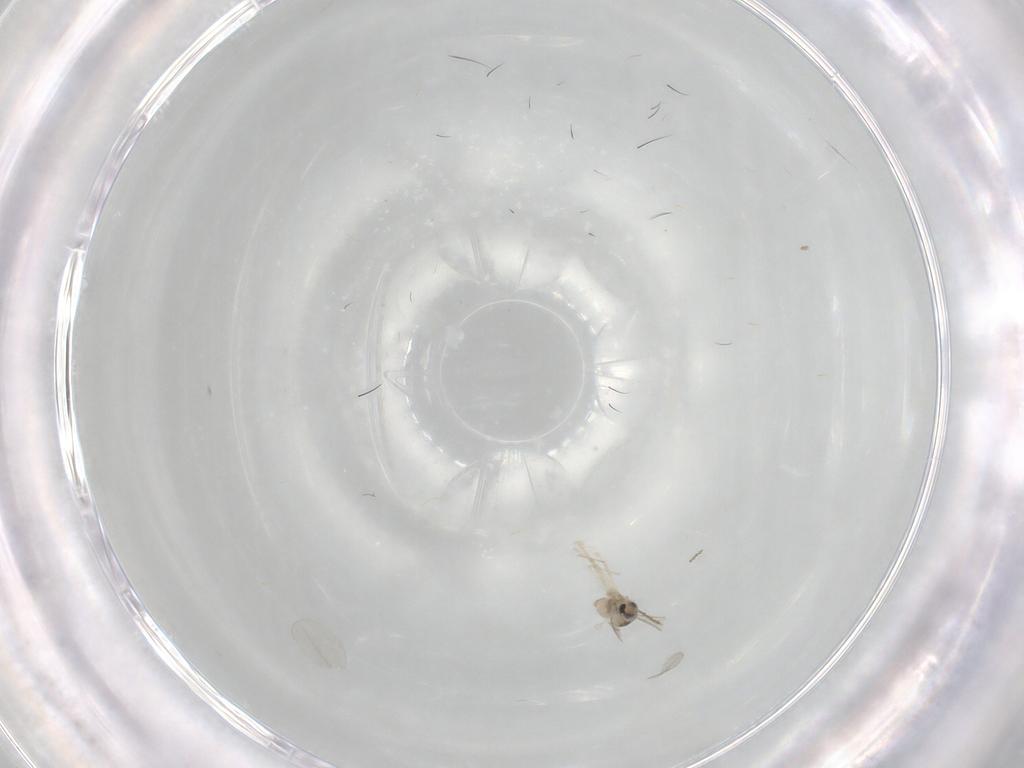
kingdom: Animalia
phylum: Arthropoda
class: Insecta
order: Diptera
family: Cecidomyiidae
